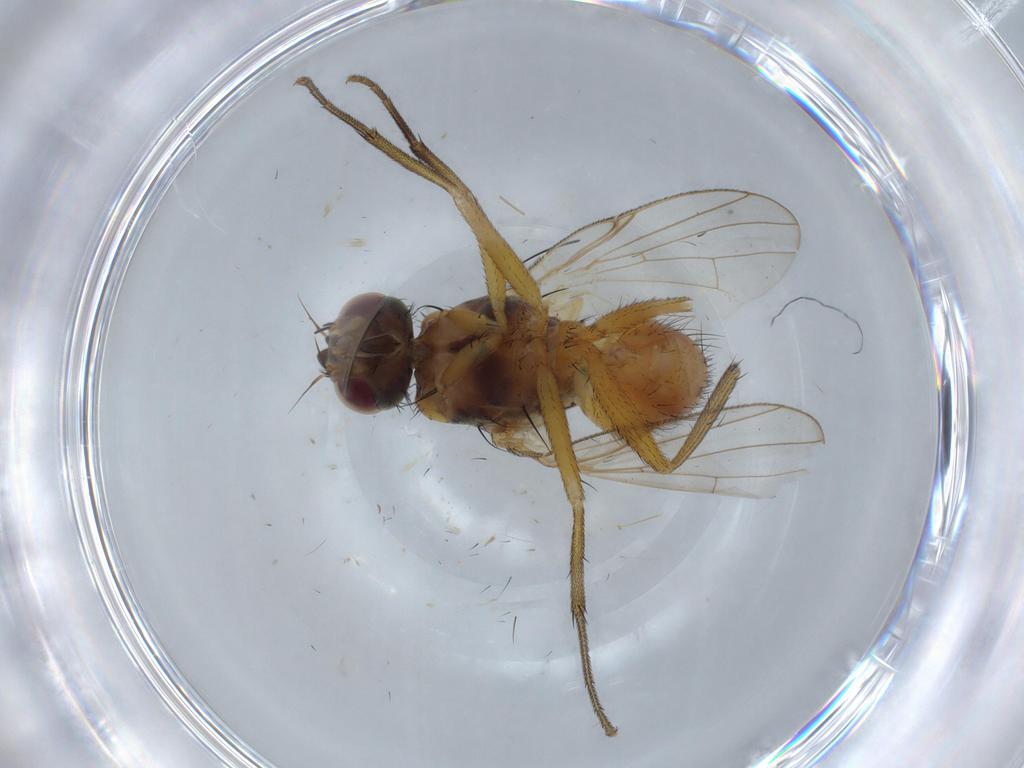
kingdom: Animalia
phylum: Arthropoda
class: Insecta
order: Diptera
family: Muscidae
